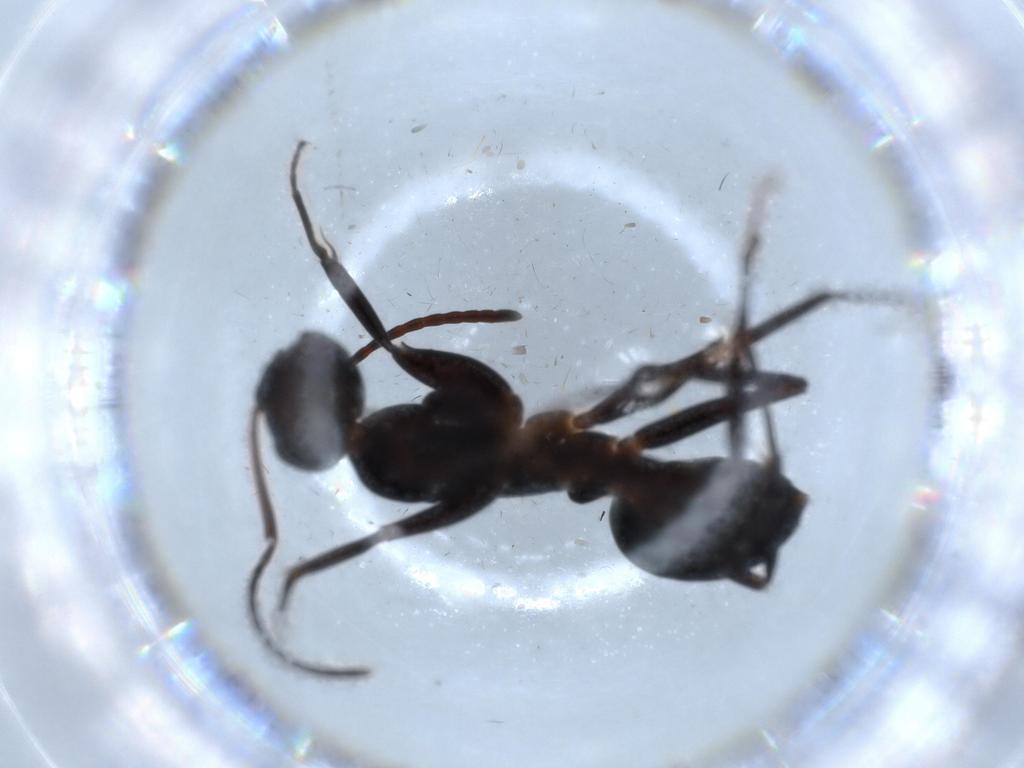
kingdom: Animalia
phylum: Arthropoda
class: Insecta
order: Hymenoptera
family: Formicidae
